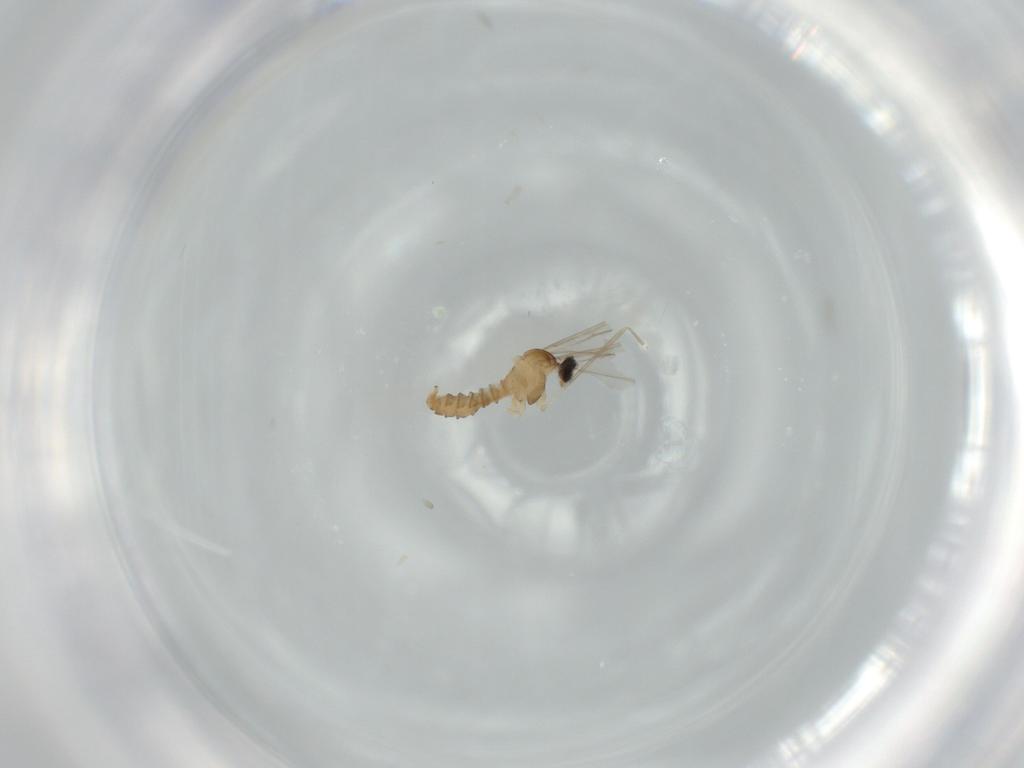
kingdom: Animalia
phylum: Arthropoda
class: Insecta
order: Diptera
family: Cecidomyiidae
